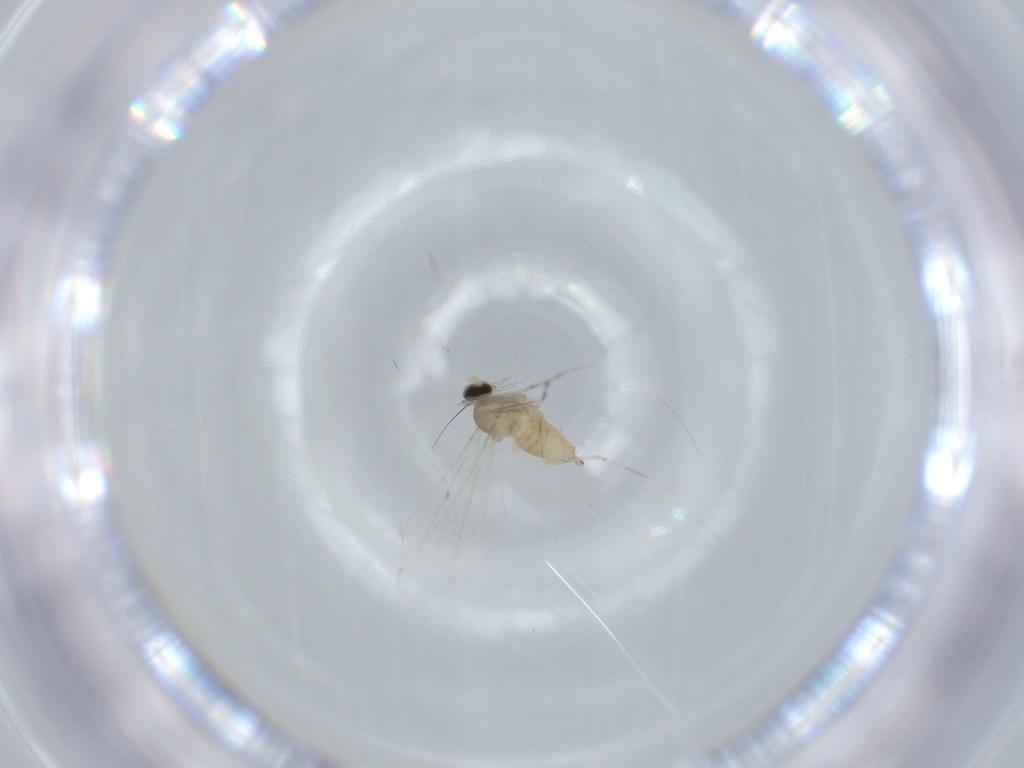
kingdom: Animalia
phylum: Arthropoda
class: Insecta
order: Diptera
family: Cecidomyiidae
